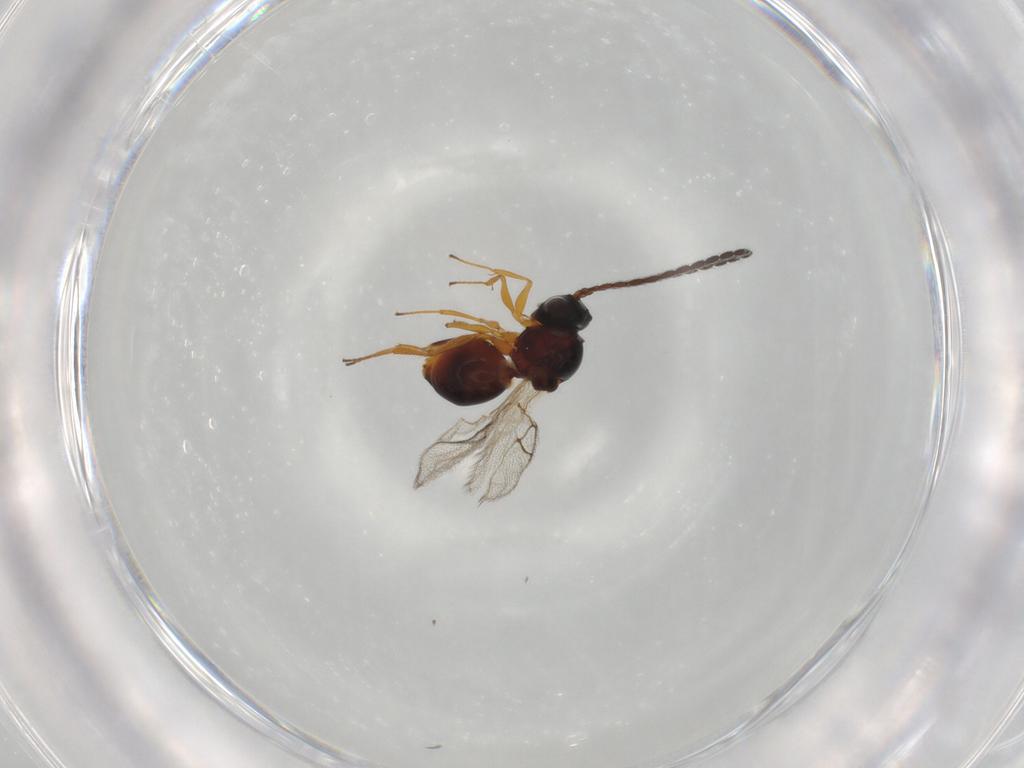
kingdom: Animalia
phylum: Arthropoda
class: Insecta
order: Hymenoptera
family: Figitidae
